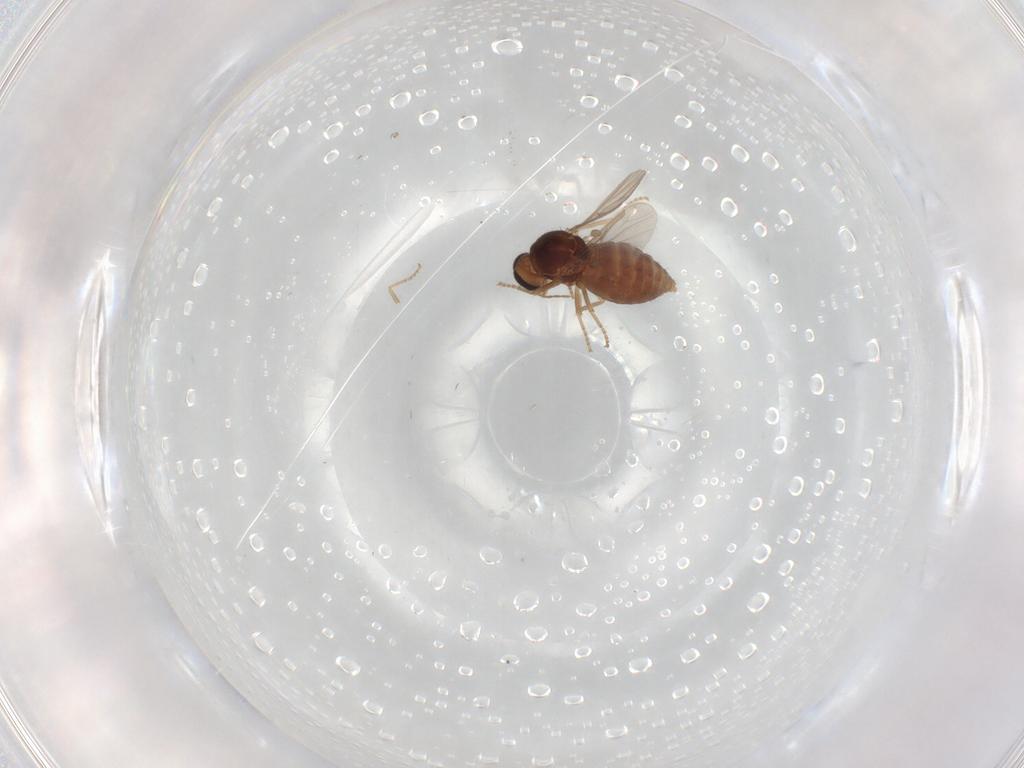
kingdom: Animalia
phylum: Arthropoda
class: Insecta
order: Diptera
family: Ceratopogonidae
